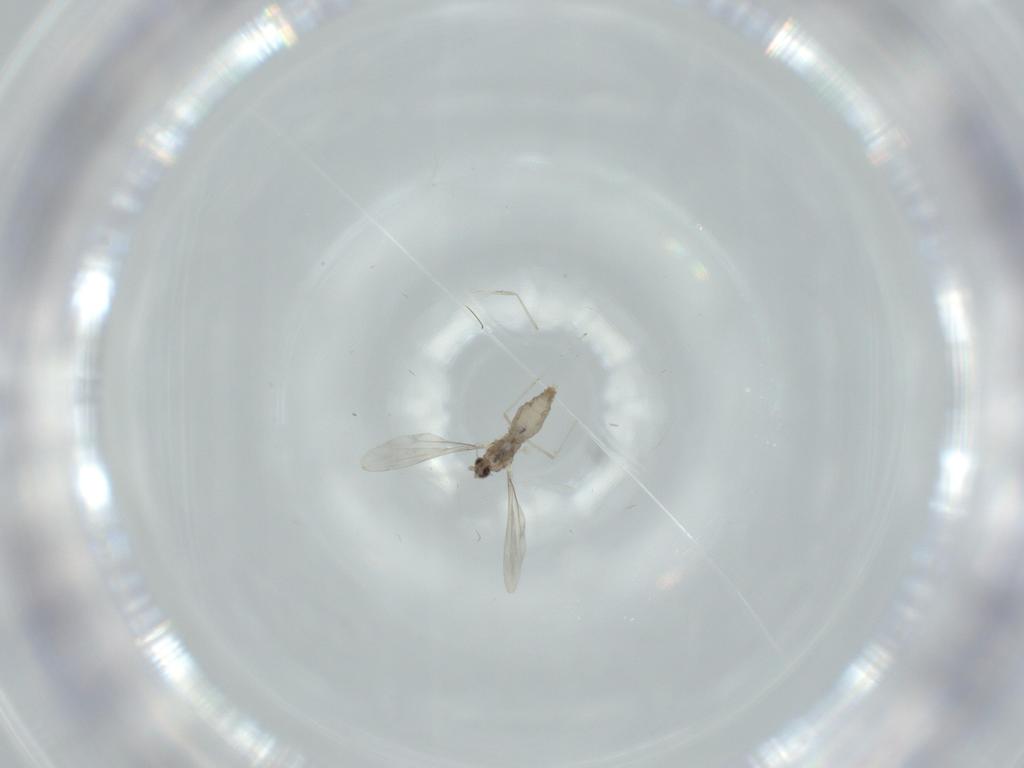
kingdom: Animalia
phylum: Arthropoda
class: Insecta
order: Diptera
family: Cecidomyiidae
